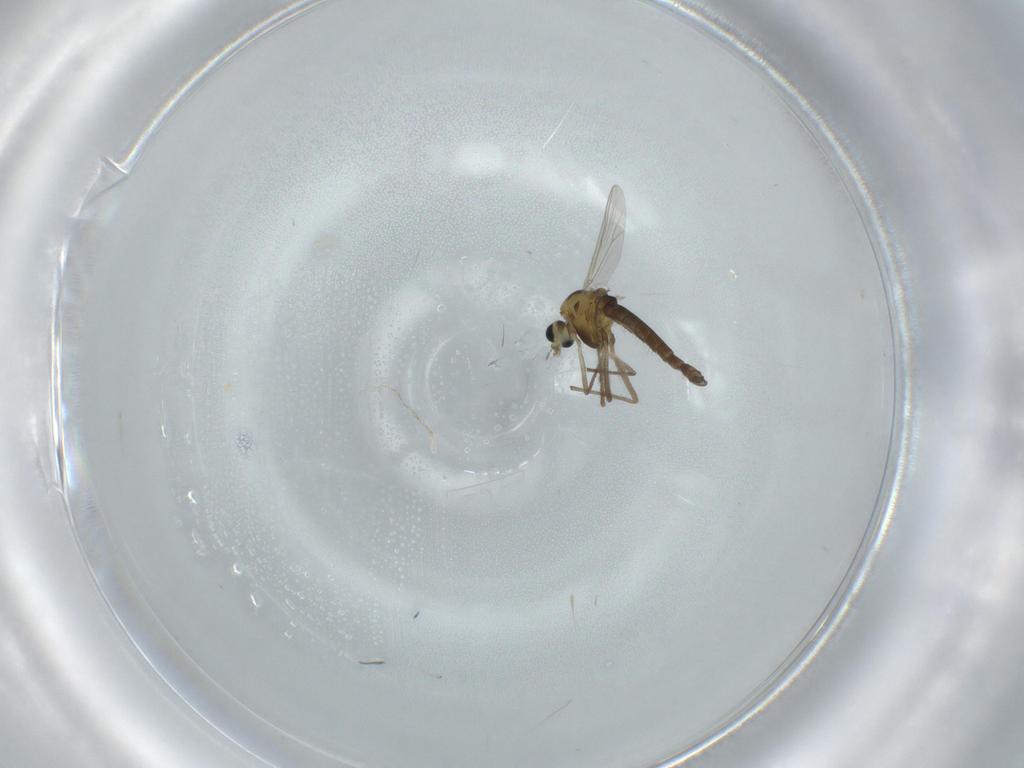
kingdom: Animalia
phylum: Arthropoda
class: Insecta
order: Diptera
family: Chironomidae
